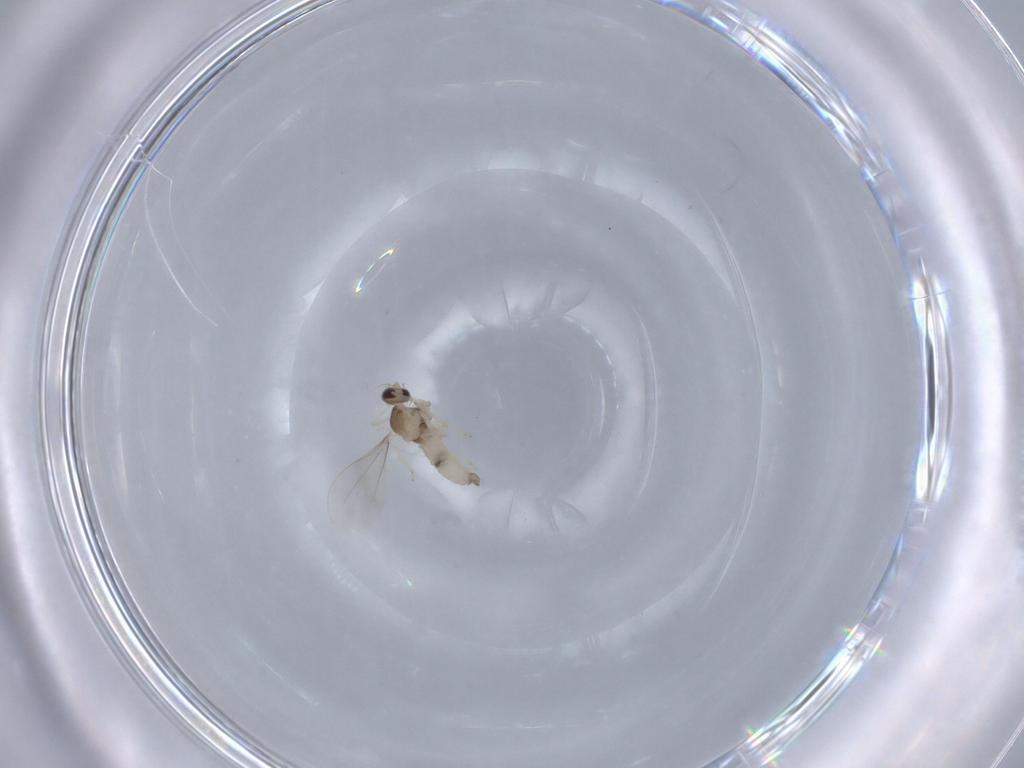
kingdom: Animalia
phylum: Arthropoda
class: Insecta
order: Diptera
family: Cecidomyiidae
